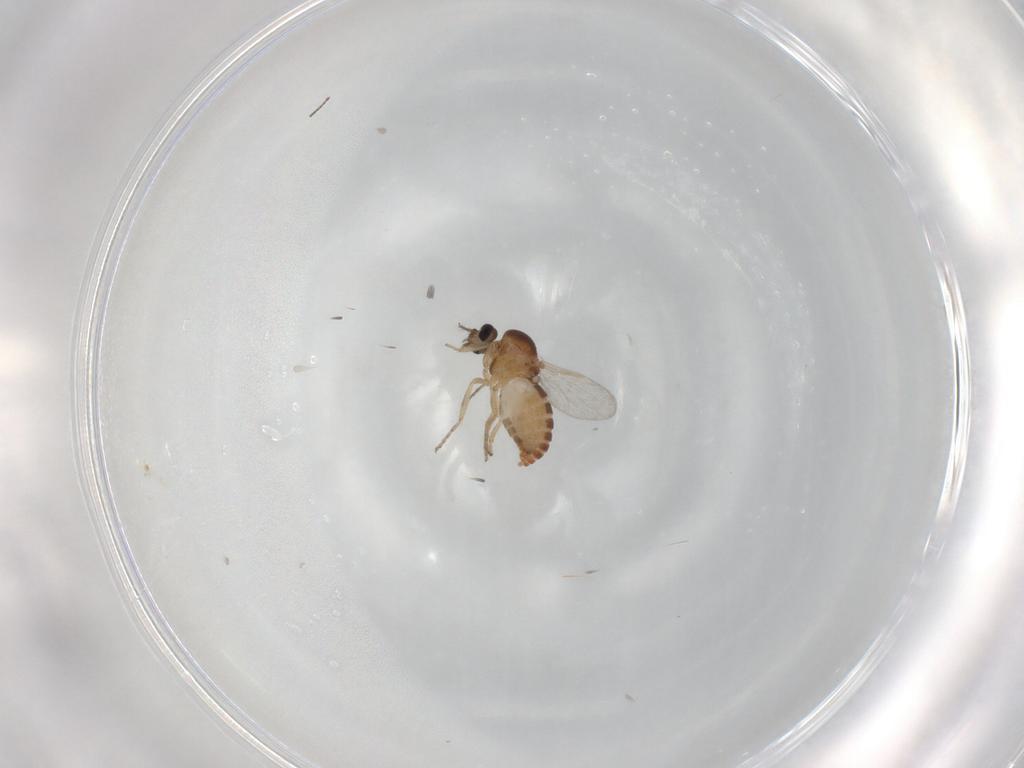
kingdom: Animalia
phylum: Arthropoda
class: Insecta
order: Diptera
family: Ceratopogonidae
